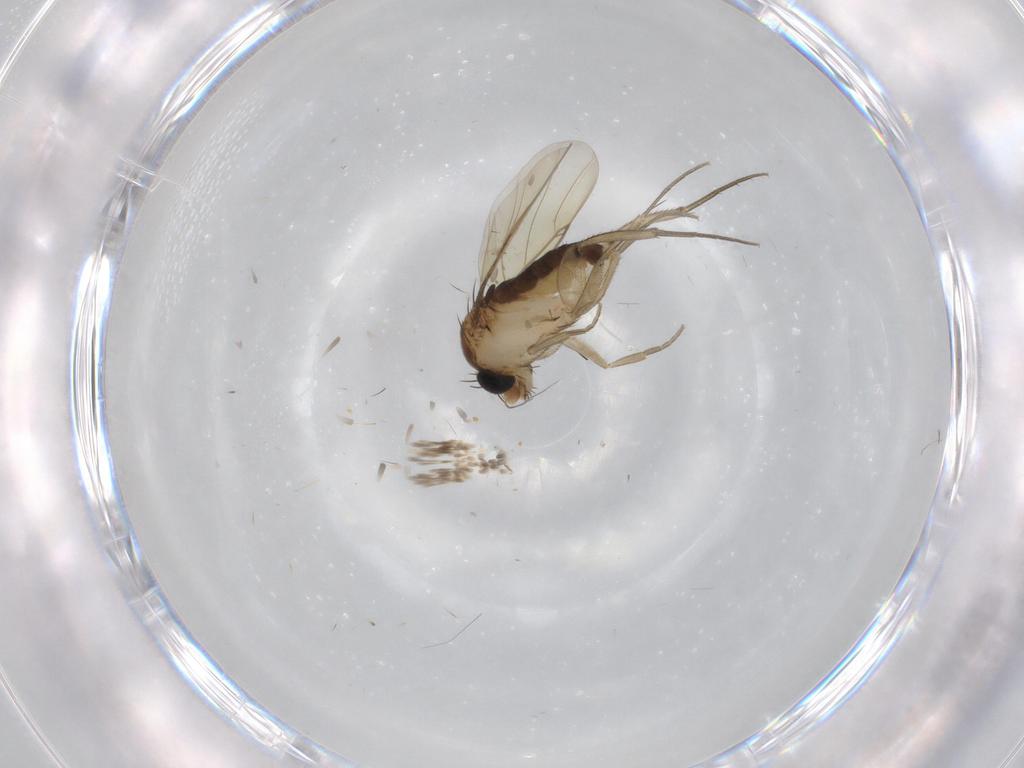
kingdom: Animalia
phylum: Arthropoda
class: Insecta
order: Diptera
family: Phoridae
